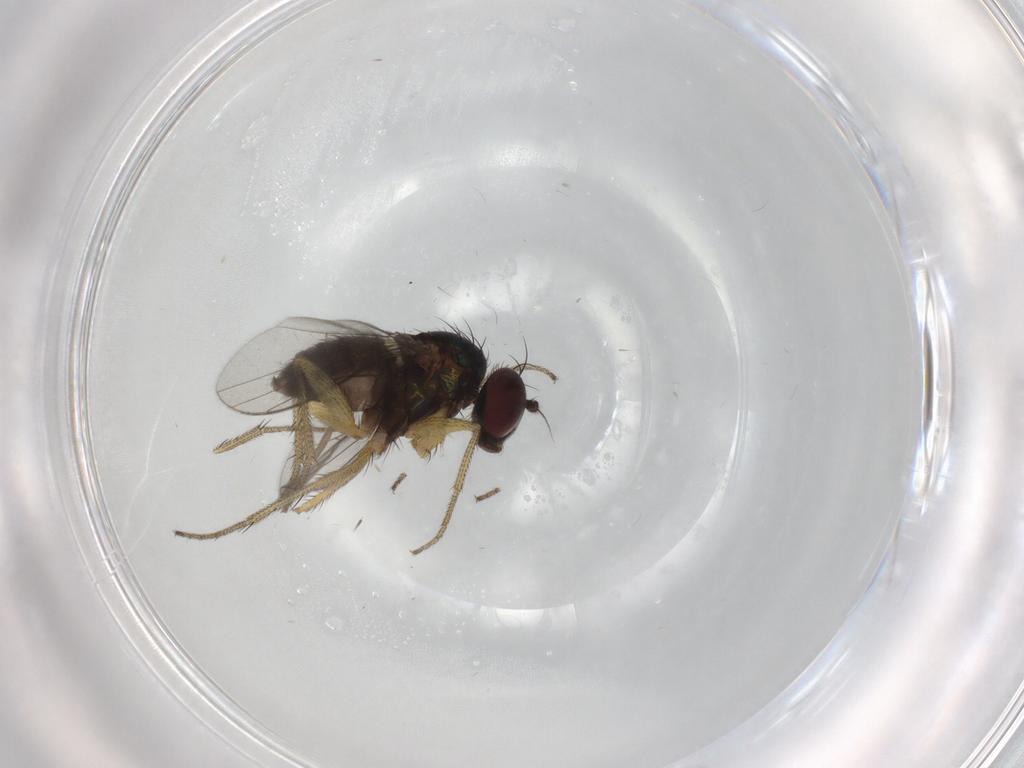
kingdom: Animalia
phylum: Arthropoda
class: Insecta
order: Diptera
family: Chironomidae
